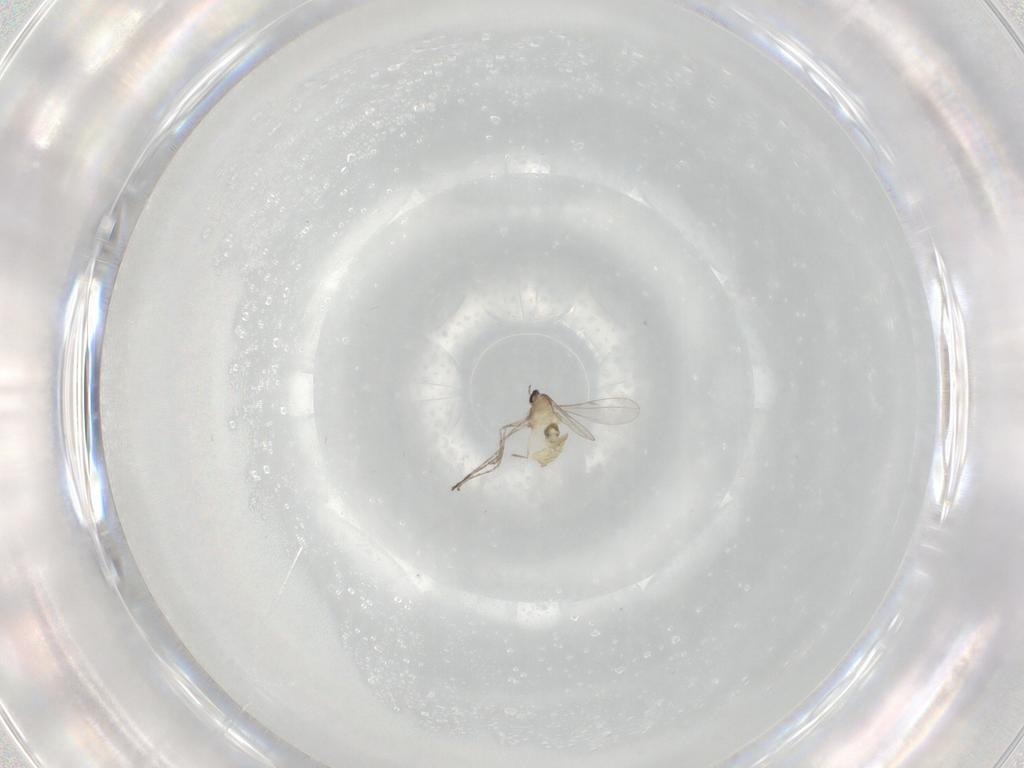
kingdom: Animalia
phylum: Arthropoda
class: Insecta
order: Diptera
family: Cecidomyiidae
